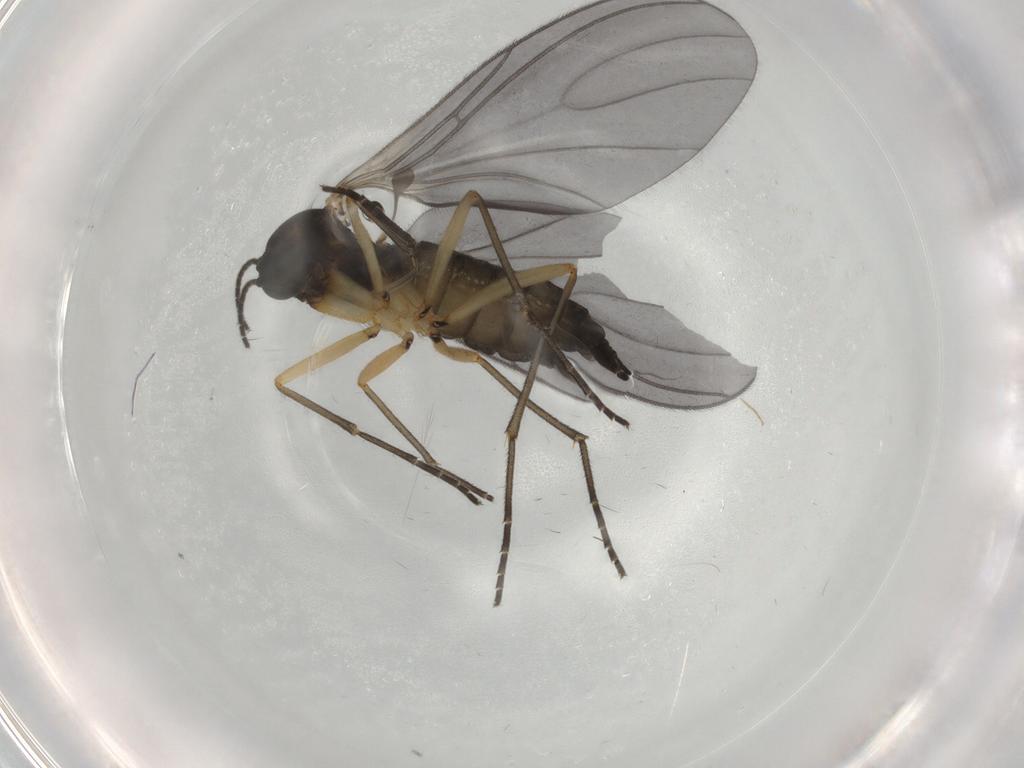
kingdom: Animalia
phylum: Arthropoda
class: Insecta
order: Diptera
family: Sciaridae
